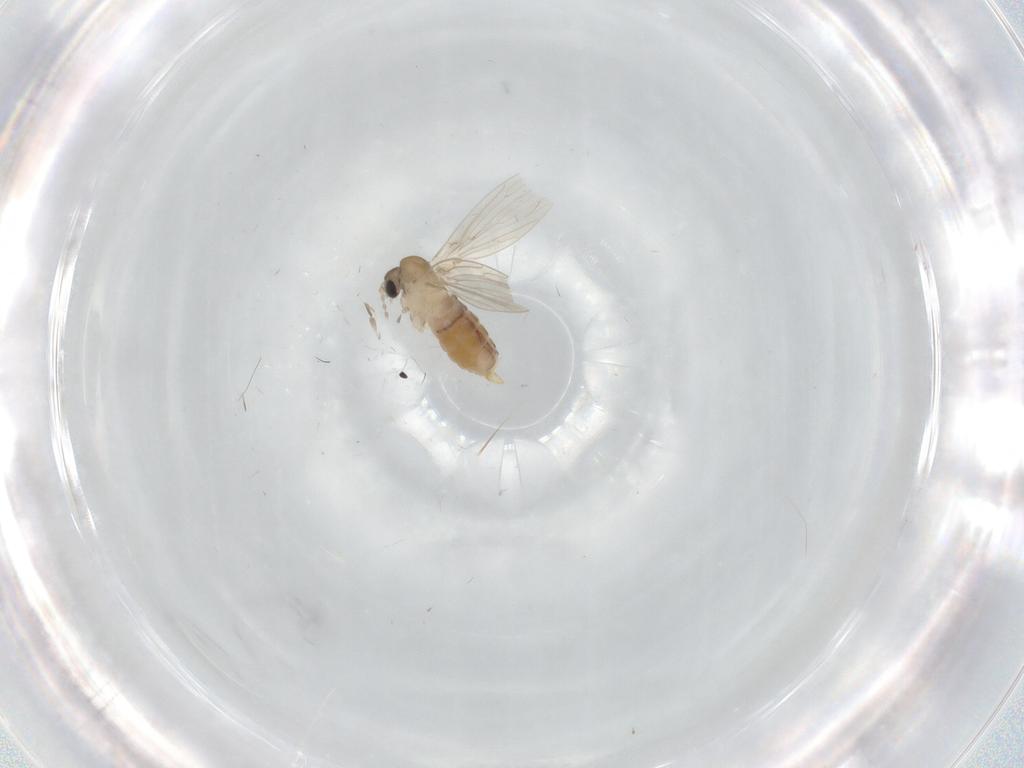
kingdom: Animalia
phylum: Arthropoda
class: Insecta
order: Diptera
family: Psychodidae
